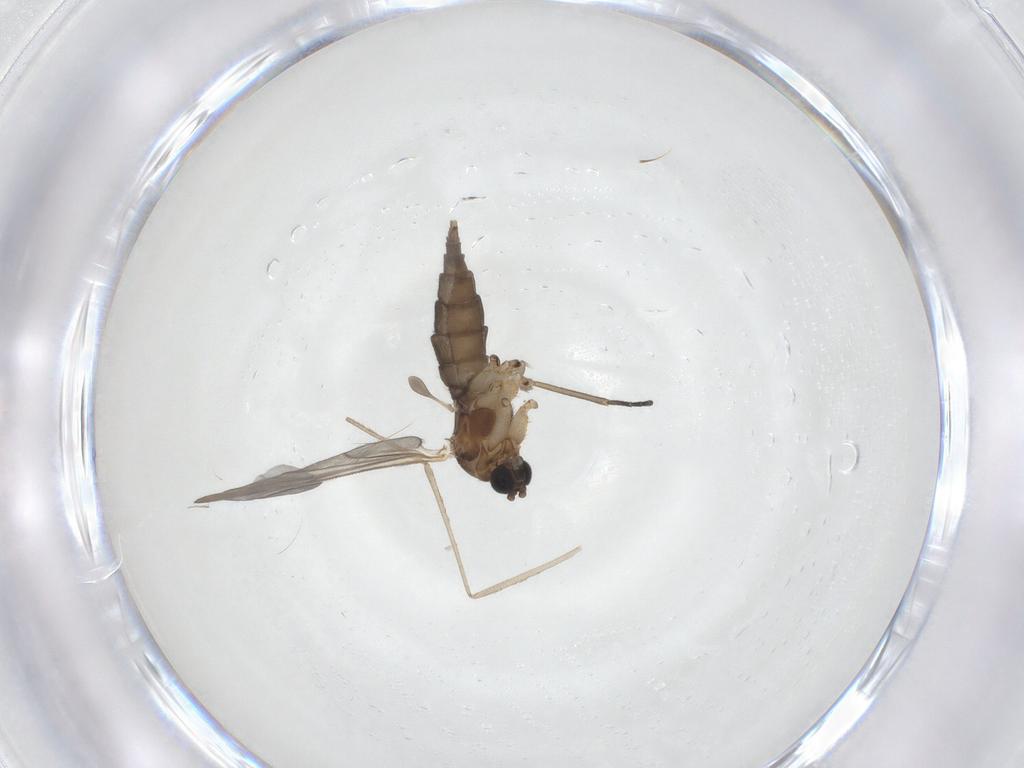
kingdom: Animalia
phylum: Arthropoda
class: Insecta
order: Diptera
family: Sciaridae
